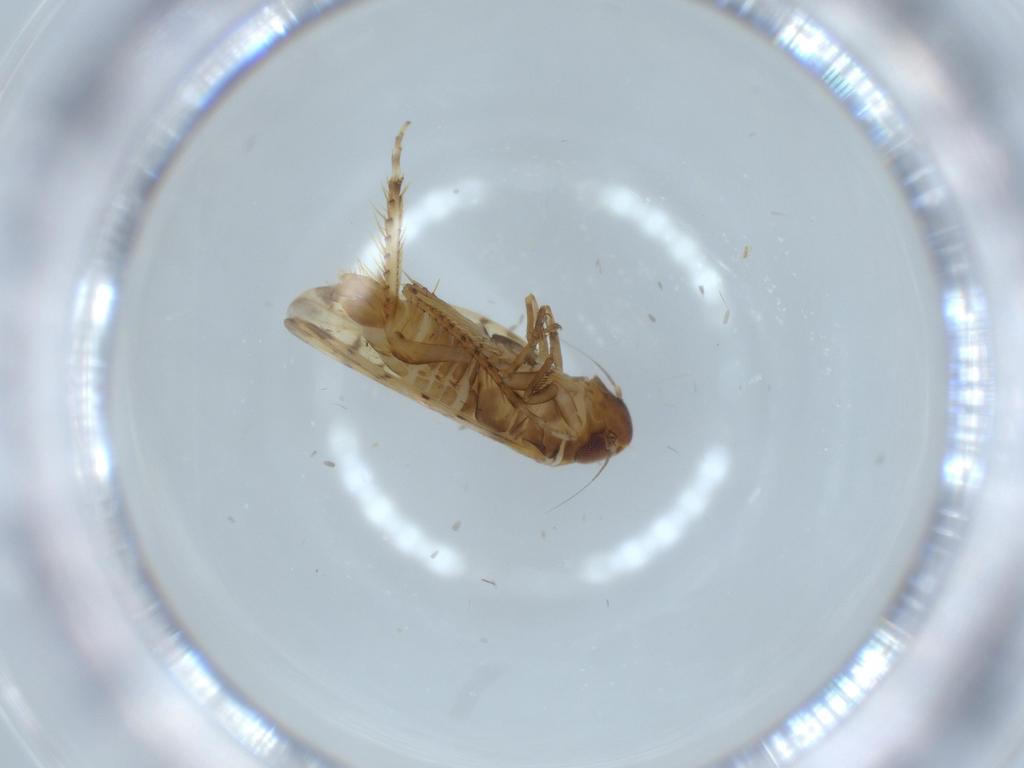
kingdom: Animalia
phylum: Arthropoda
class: Insecta
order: Hemiptera
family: Cicadellidae
